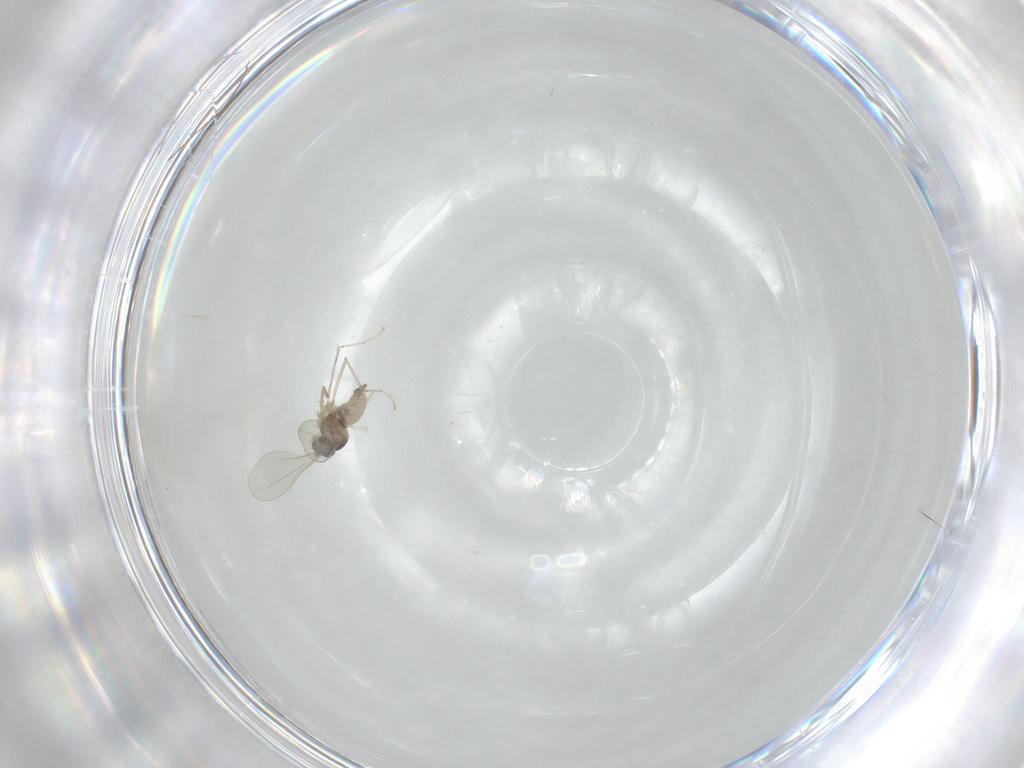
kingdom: Animalia
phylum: Arthropoda
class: Insecta
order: Diptera
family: Cecidomyiidae
